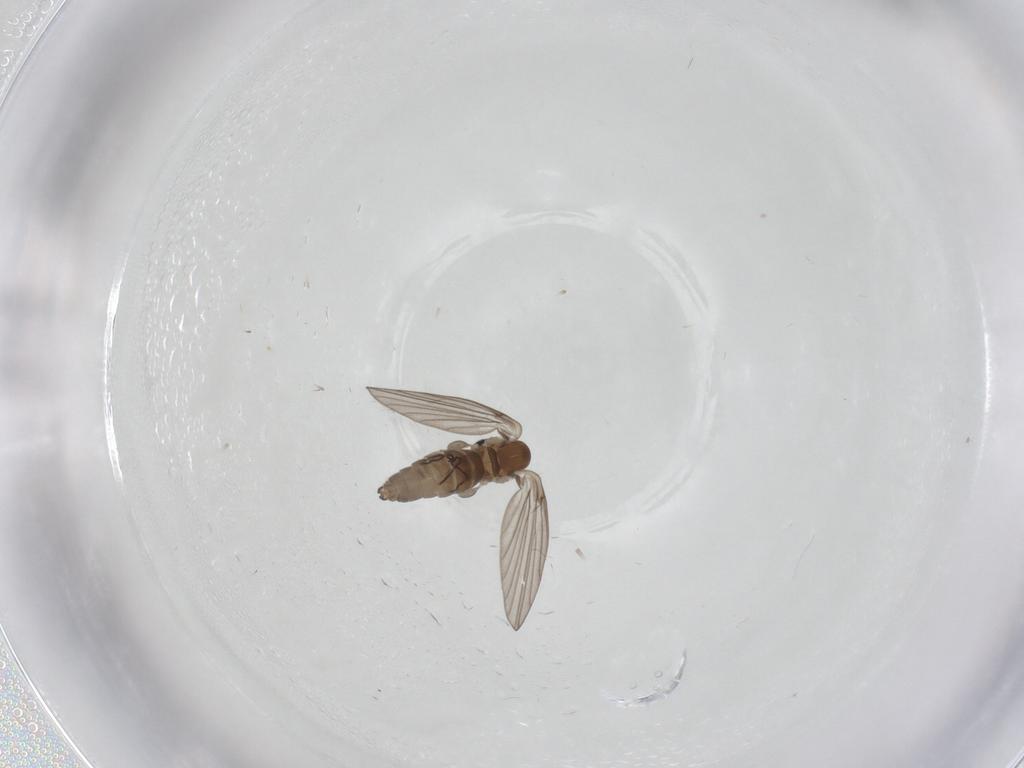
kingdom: Animalia
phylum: Arthropoda
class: Insecta
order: Diptera
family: Psychodidae
